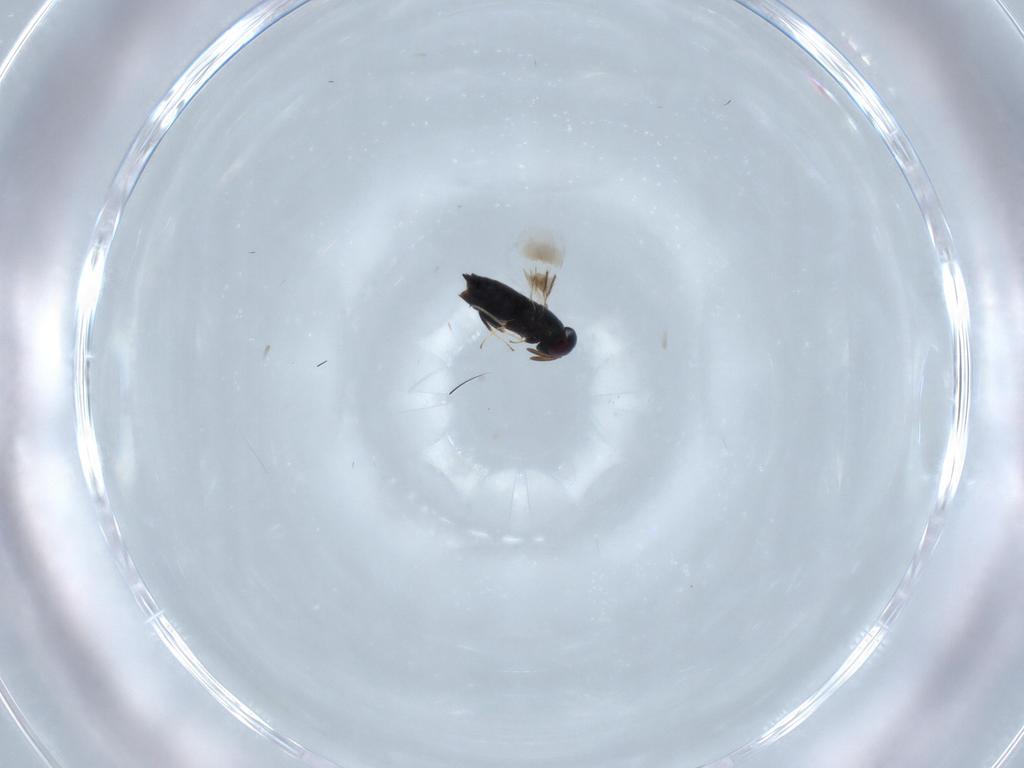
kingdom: Animalia
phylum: Arthropoda
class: Insecta
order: Hymenoptera
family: Signiphoridae
